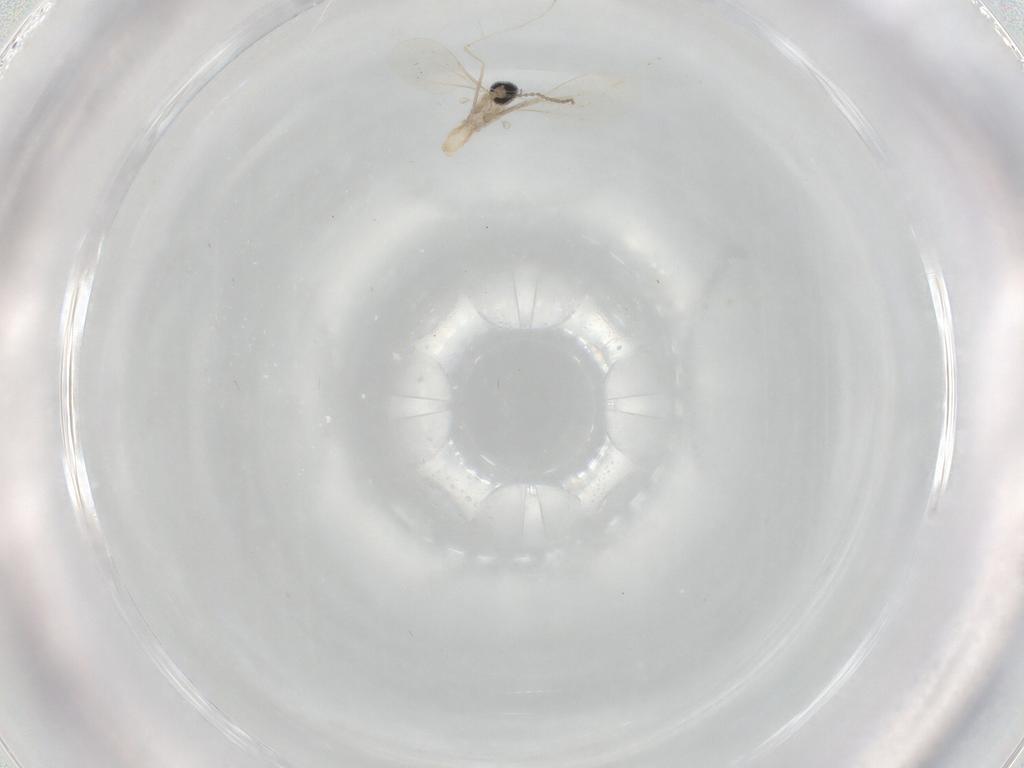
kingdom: Animalia
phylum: Arthropoda
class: Insecta
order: Diptera
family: Cecidomyiidae
